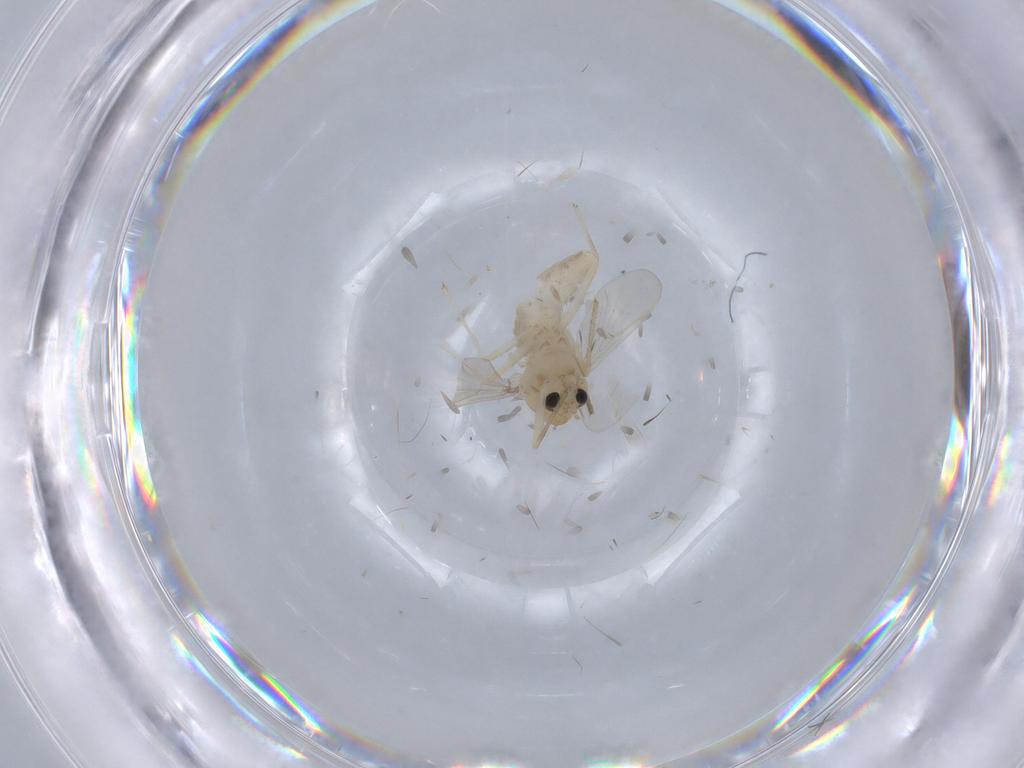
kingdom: Animalia
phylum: Arthropoda
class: Insecta
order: Diptera
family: Chironomidae
